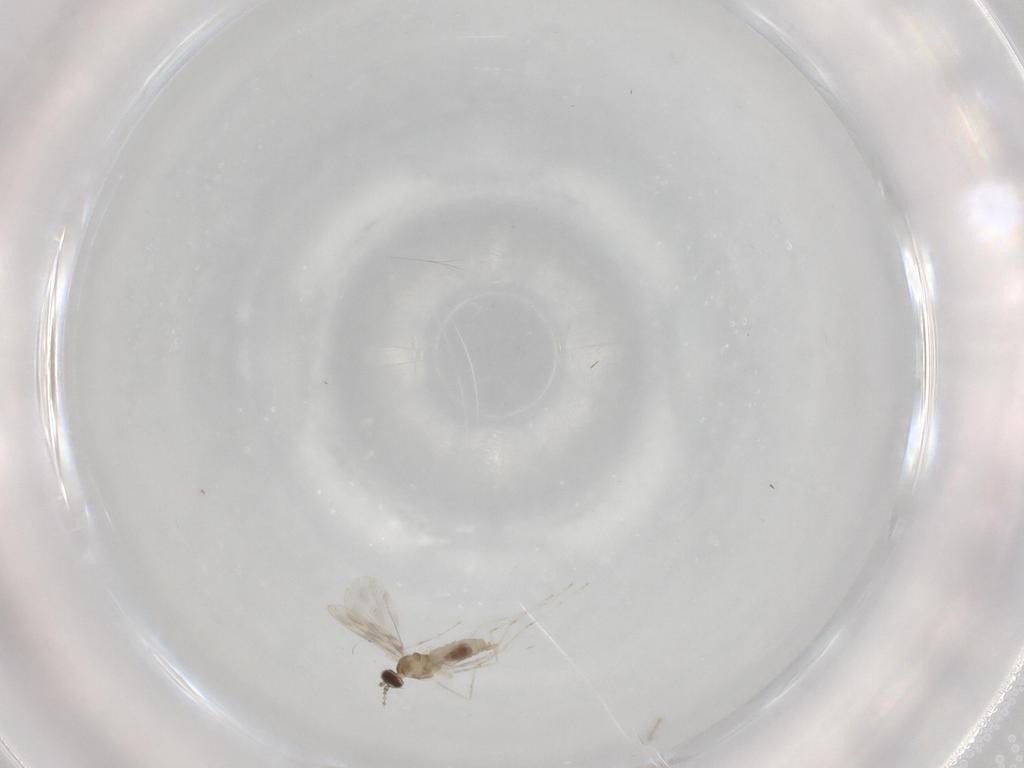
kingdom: Animalia
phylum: Arthropoda
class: Insecta
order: Diptera
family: Cecidomyiidae
